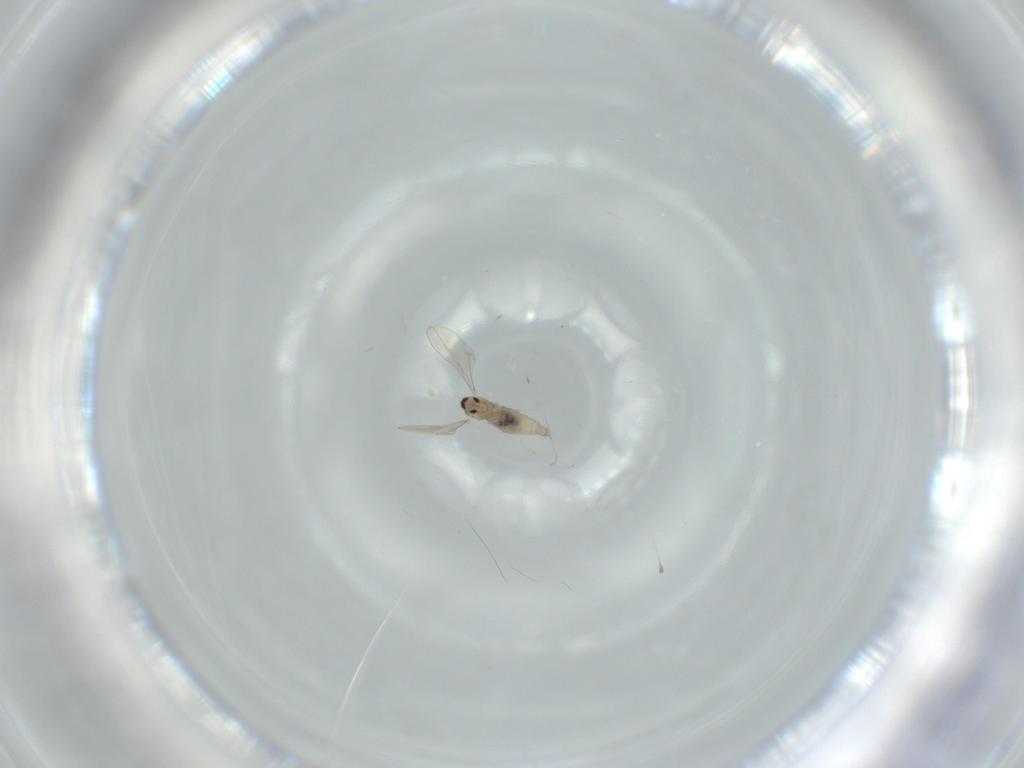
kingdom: Animalia
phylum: Arthropoda
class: Insecta
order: Diptera
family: Cecidomyiidae
